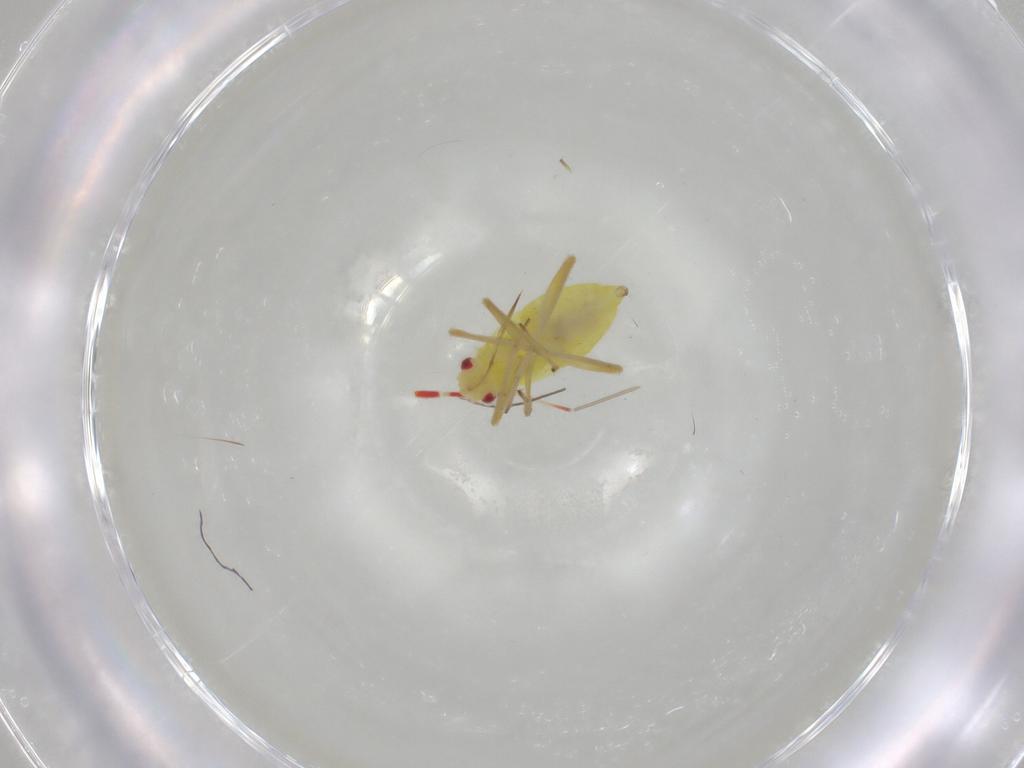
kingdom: Animalia
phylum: Arthropoda
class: Insecta
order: Hemiptera
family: Miridae
